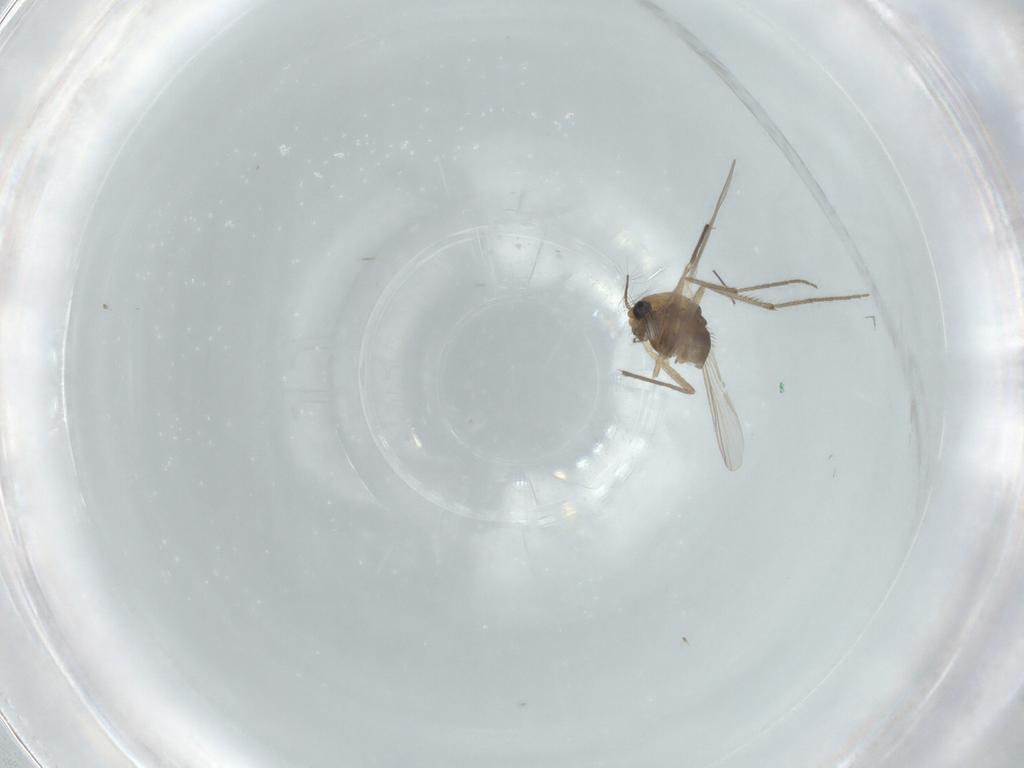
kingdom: Animalia
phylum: Arthropoda
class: Insecta
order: Diptera
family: Chironomidae
